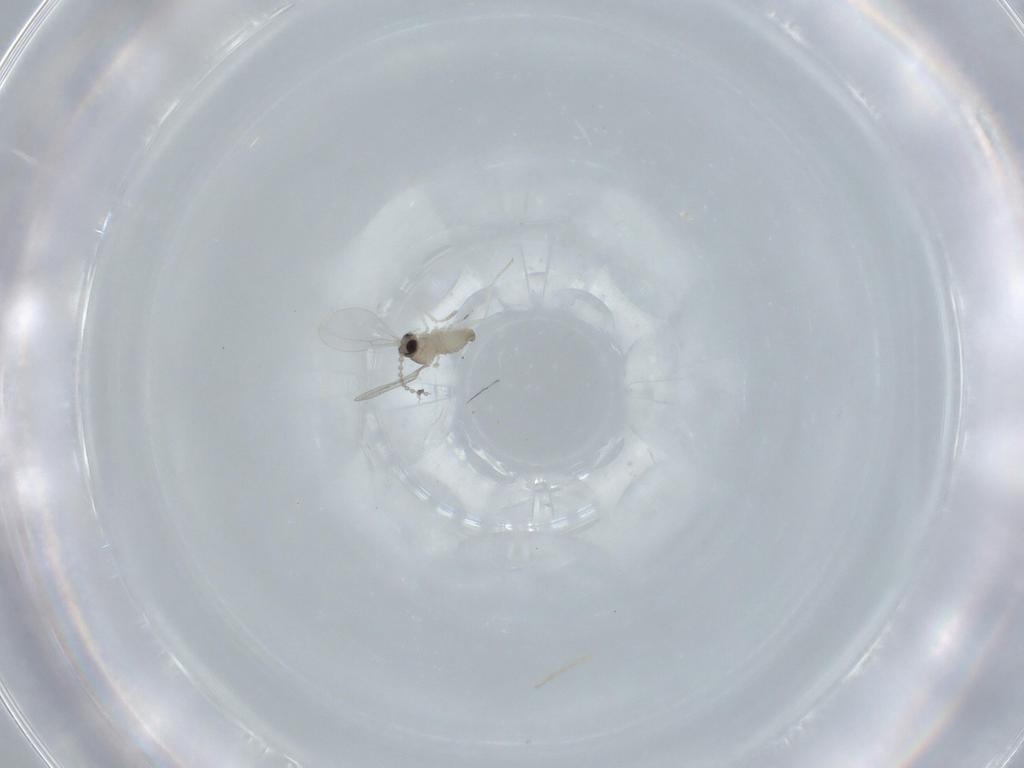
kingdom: Animalia
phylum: Arthropoda
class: Insecta
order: Diptera
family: Cecidomyiidae
